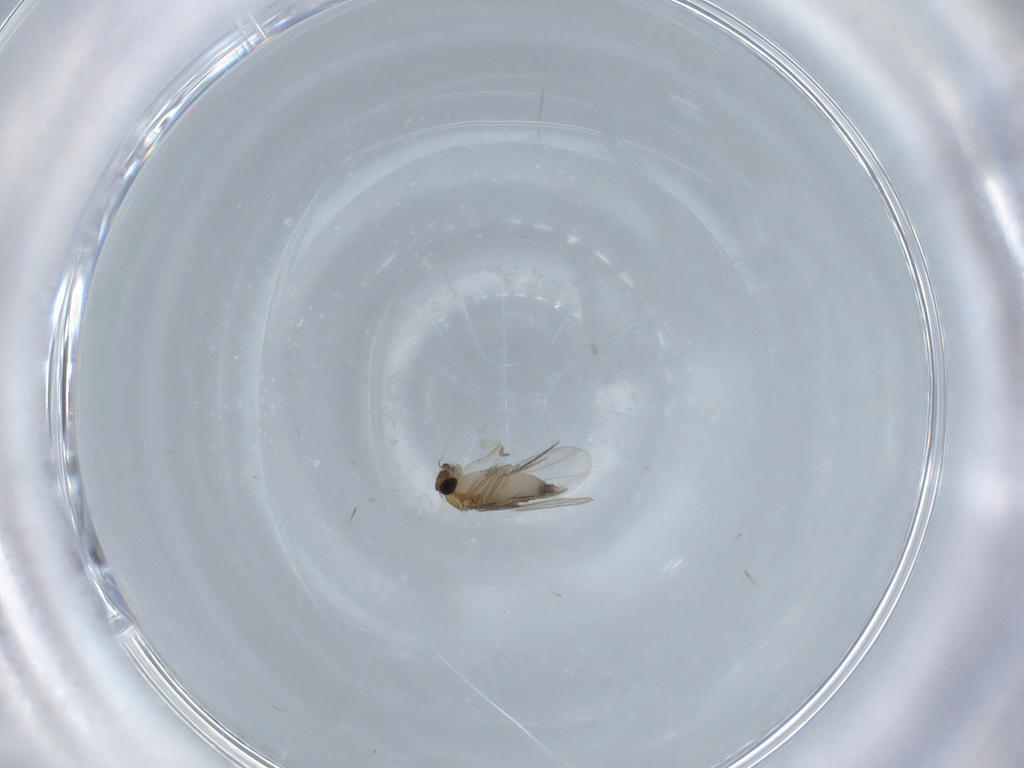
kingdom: Animalia
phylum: Arthropoda
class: Insecta
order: Diptera
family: Phoridae
